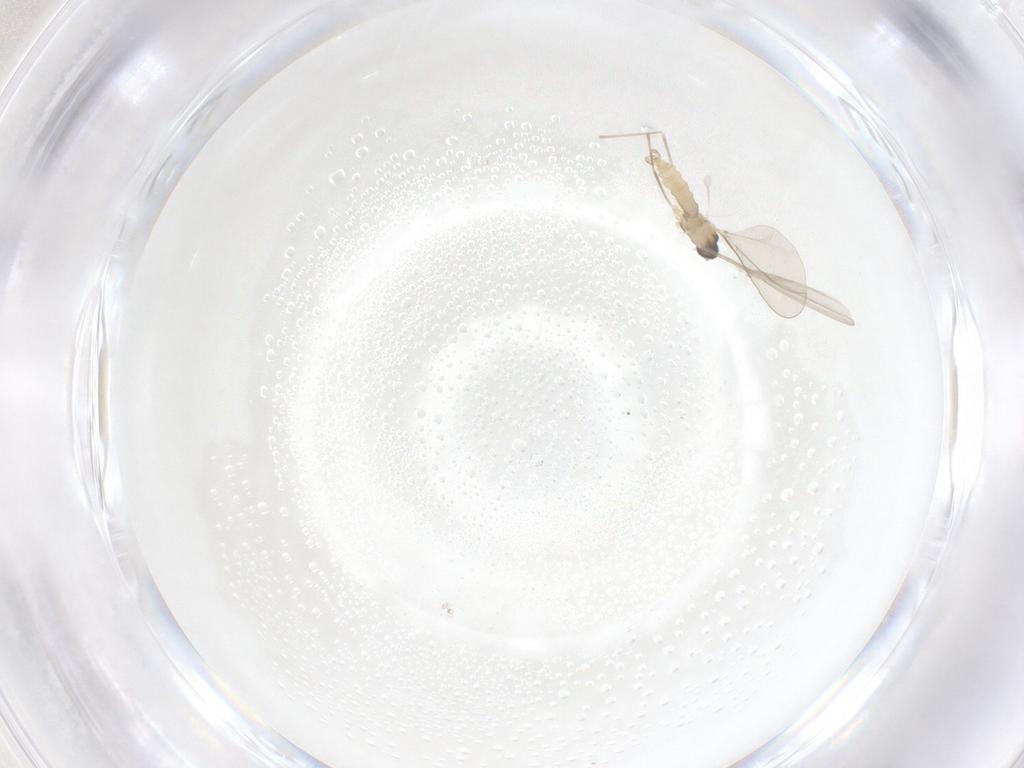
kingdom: Animalia
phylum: Arthropoda
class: Insecta
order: Diptera
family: Cecidomyiidae
